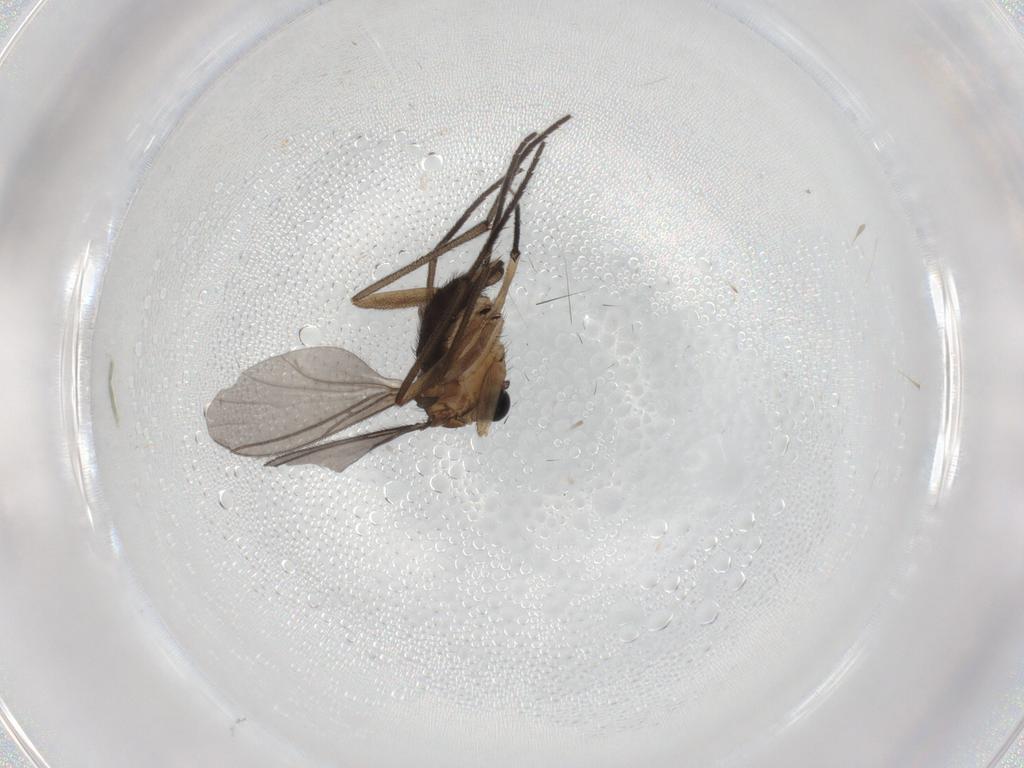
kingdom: Animalia
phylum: Arthropoda
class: Insecta
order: Diptera
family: Sciaridae
